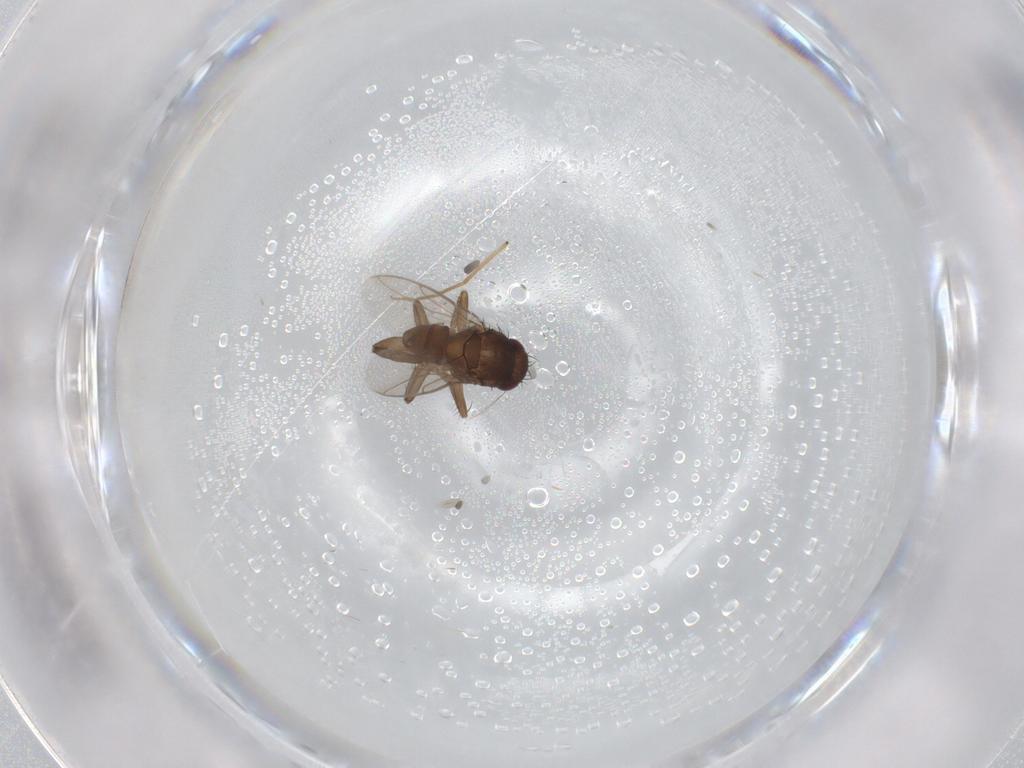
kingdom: Animalia
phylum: Arthropoda
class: Insecta
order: Diptera
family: Sphaeroceridae
